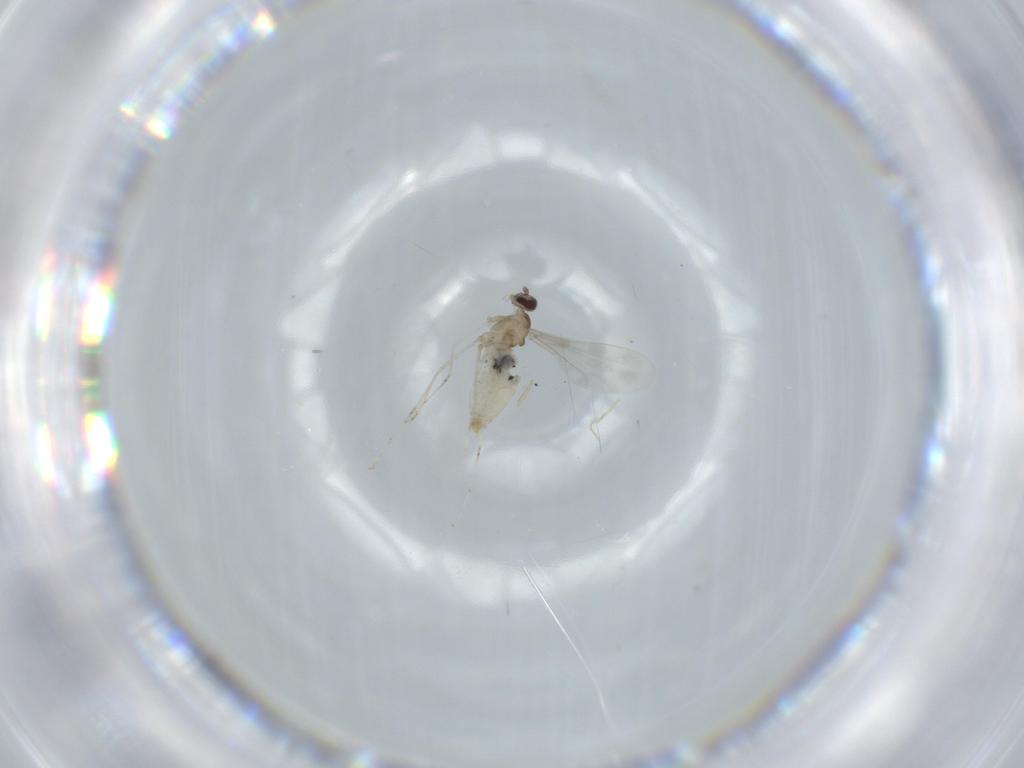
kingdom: Animalia
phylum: Arthropoda
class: Insecta
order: Diptera
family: Cecidomyiidae
